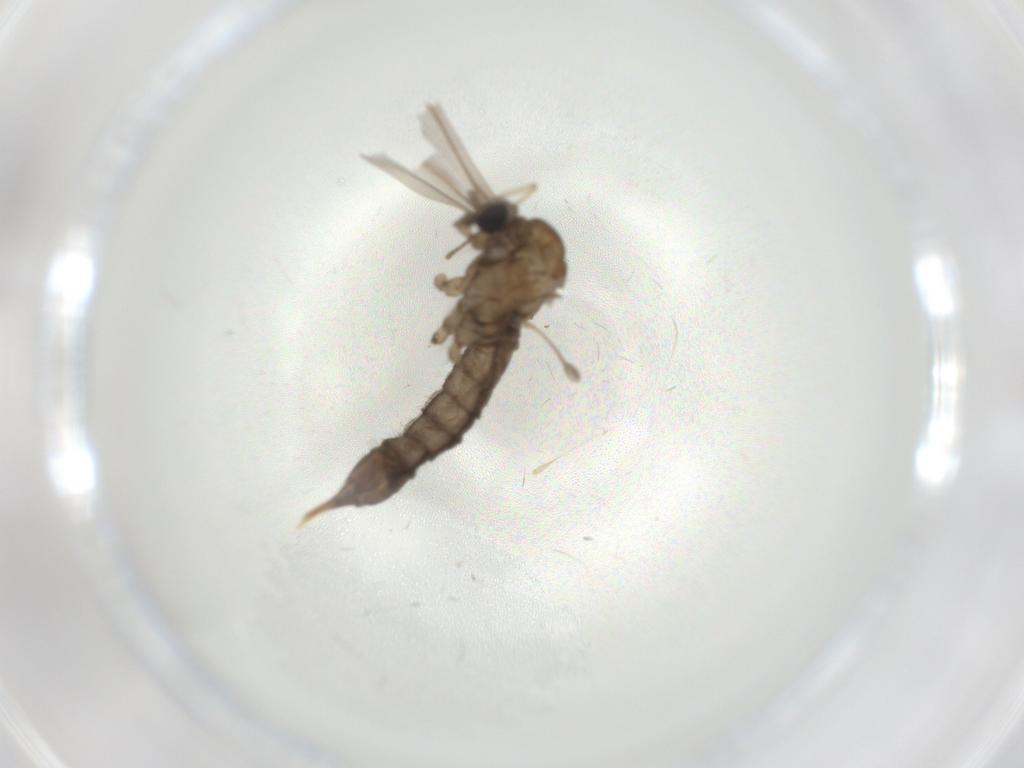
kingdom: Animalia
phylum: Arthropoda
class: Insecta
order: Diptera
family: Limoniidae
